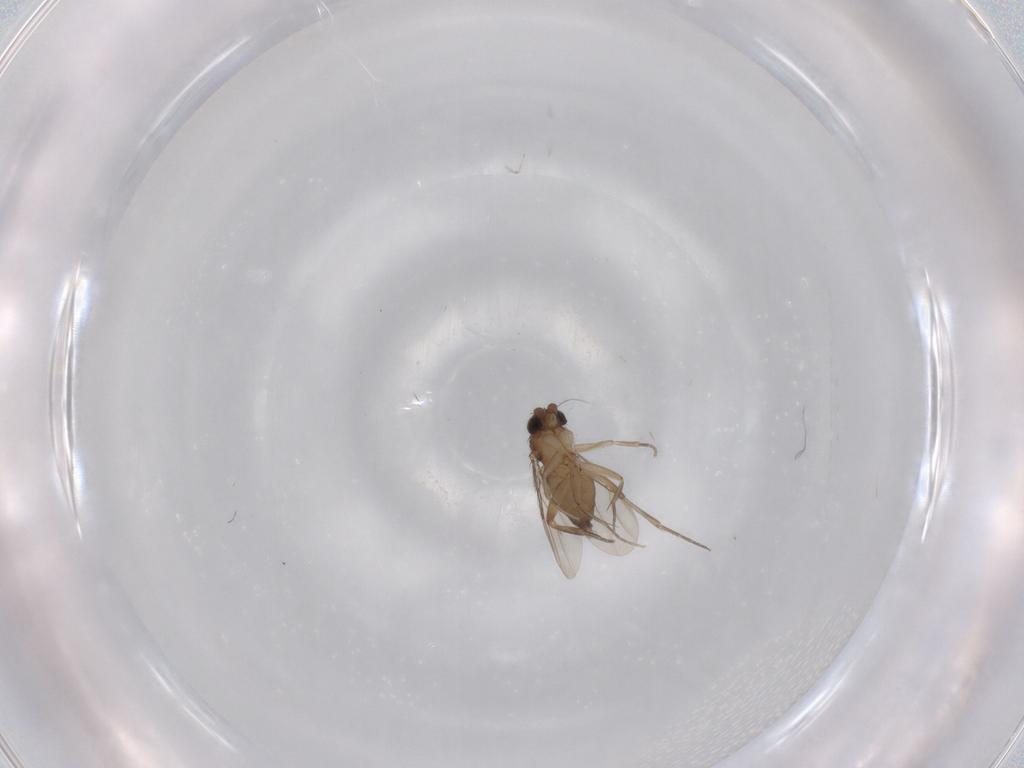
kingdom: Animalia
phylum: Arthropoda
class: Insecta
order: Diptera
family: Phoridae
